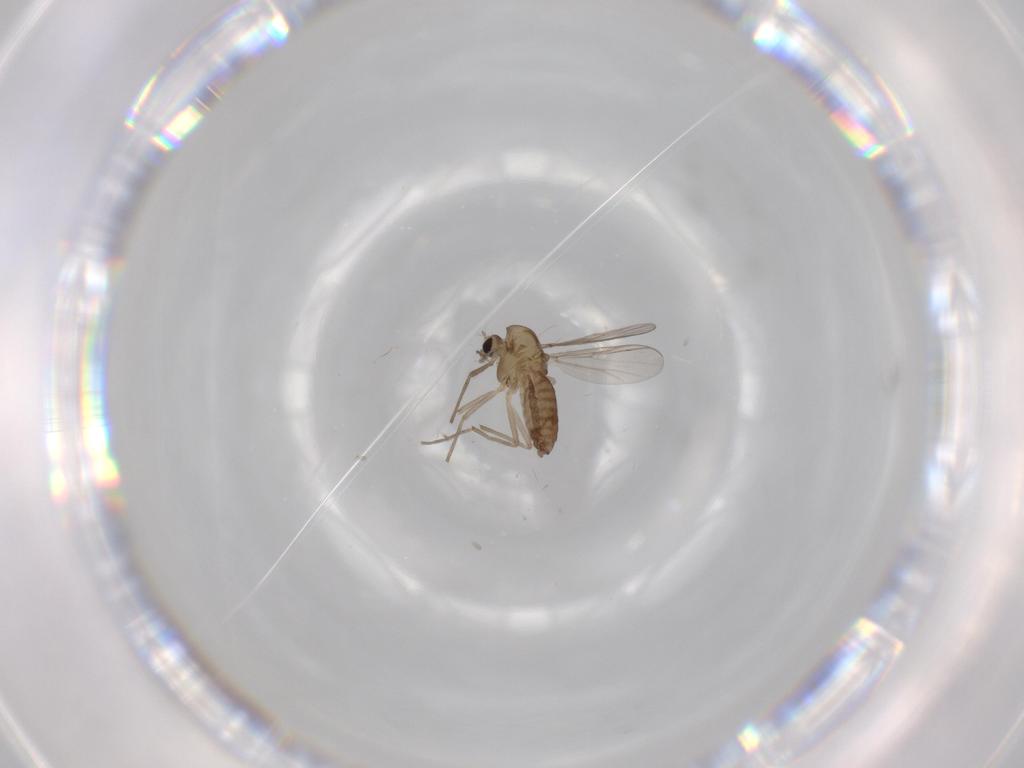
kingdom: Animalia
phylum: Arthropoda
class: Insecta
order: Diptera
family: Chironomidae
